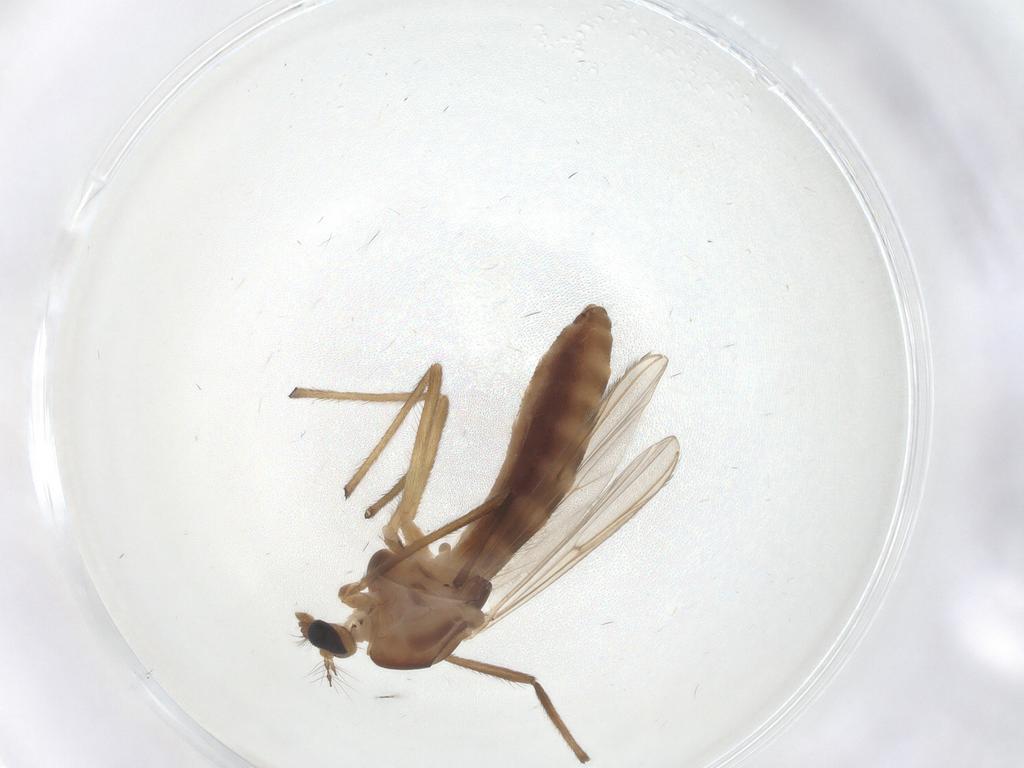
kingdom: Animalia
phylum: Arthropoda
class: Insecta
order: Diptera
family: Chironomidae
